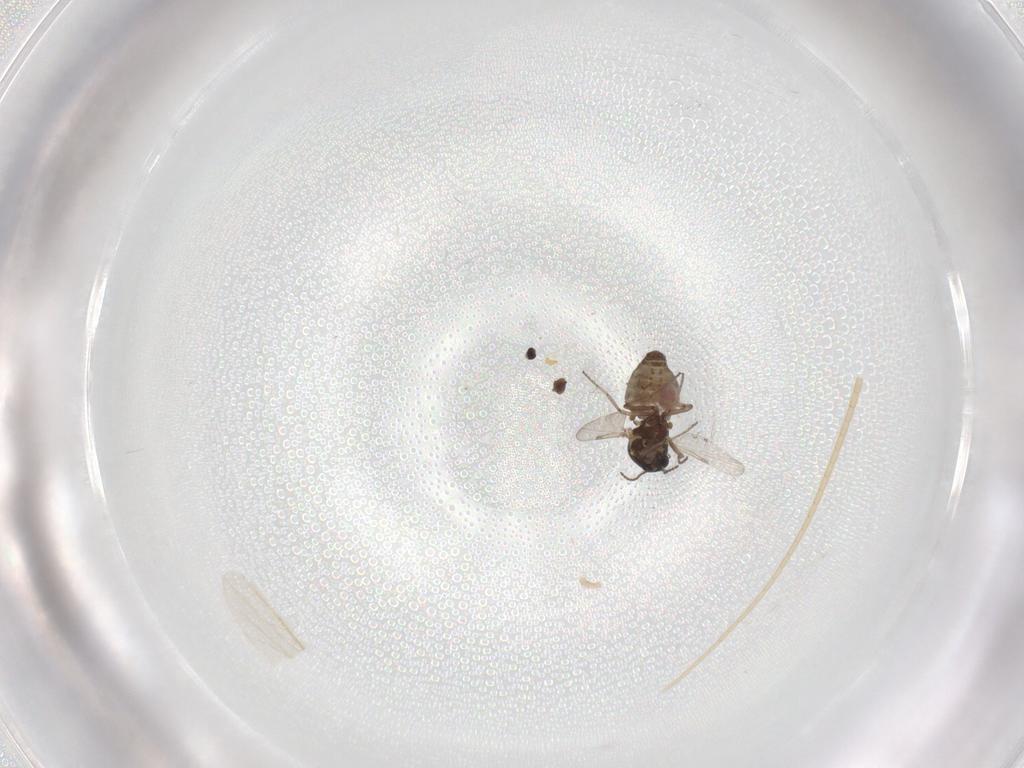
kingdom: Animalia
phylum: Arthropoda
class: Insecta
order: Diptera
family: Ceratopogonidae
